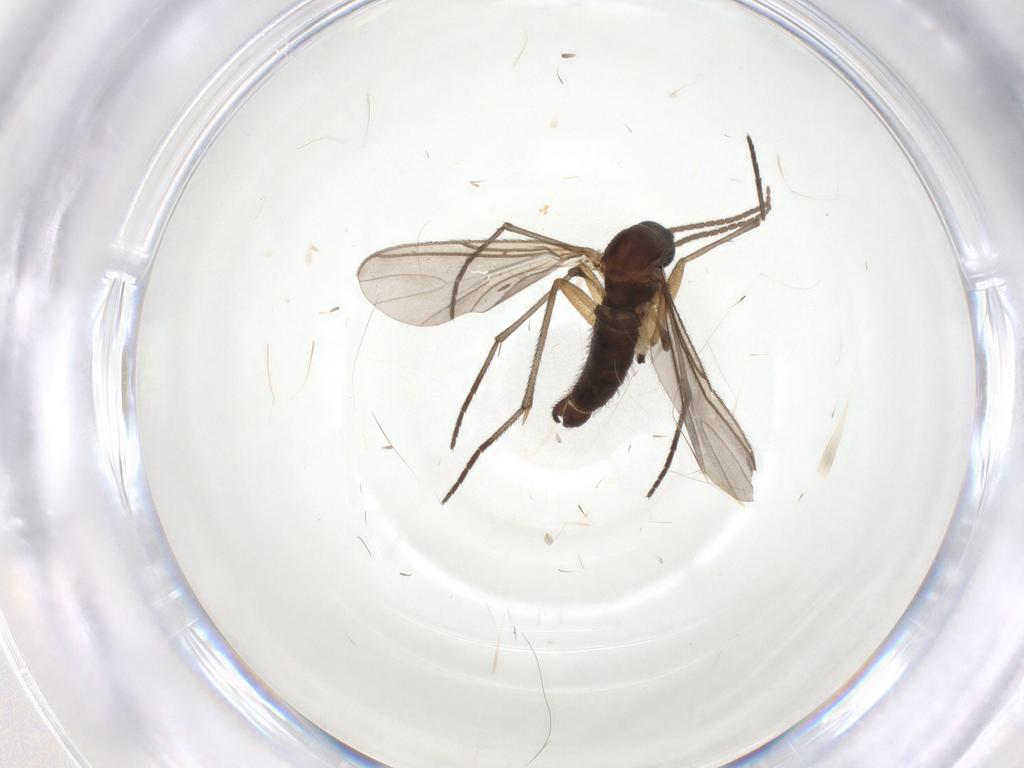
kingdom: Animalia
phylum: Arthropoda
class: Insecta
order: Diptera
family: Sciaridae
